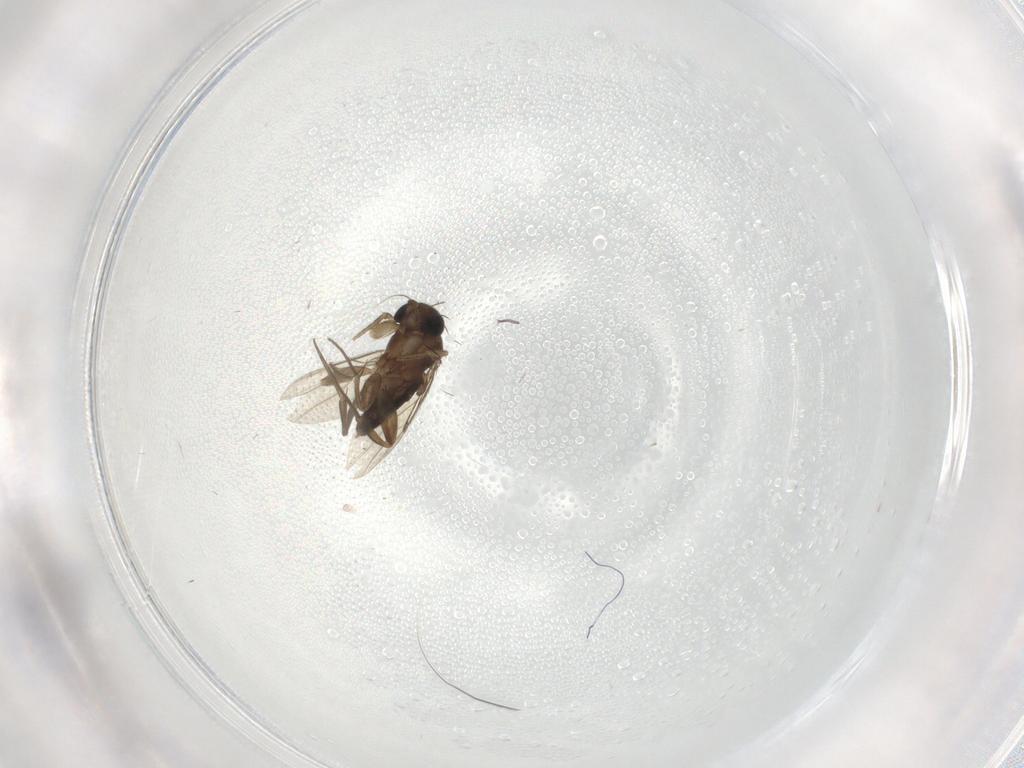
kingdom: Animalia
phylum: Arthropoda
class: Insecta
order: Diptera
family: Phoridae
